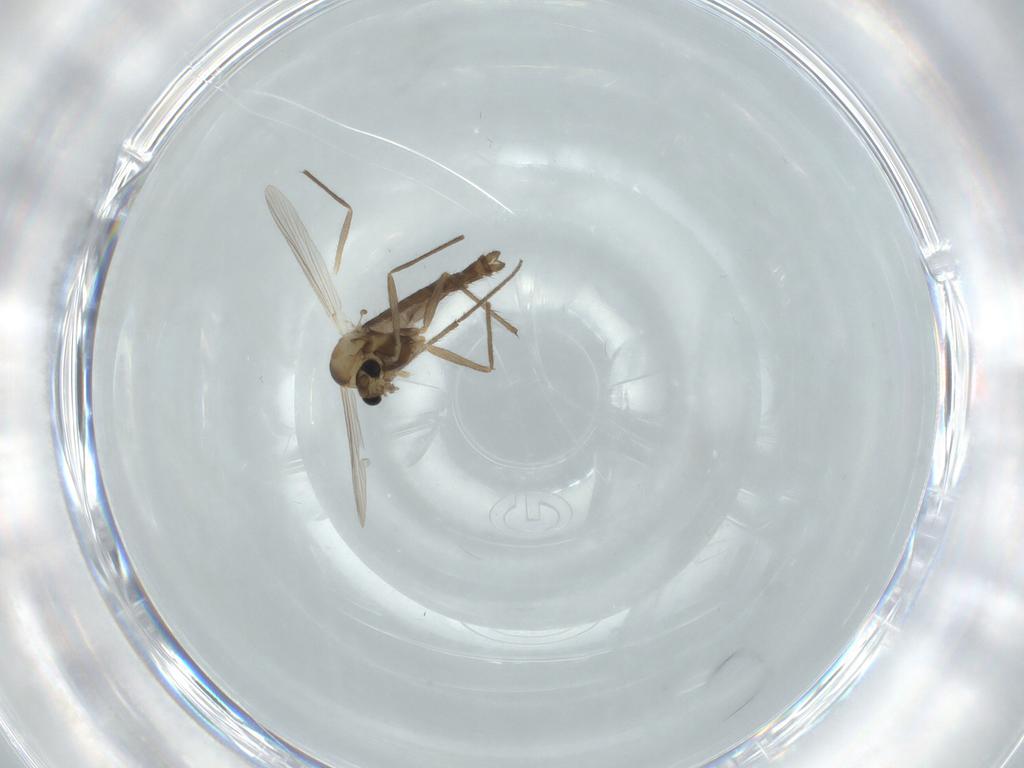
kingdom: Animalia
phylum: Arthropoda
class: Insecta
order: Diptera
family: Chironomidae
